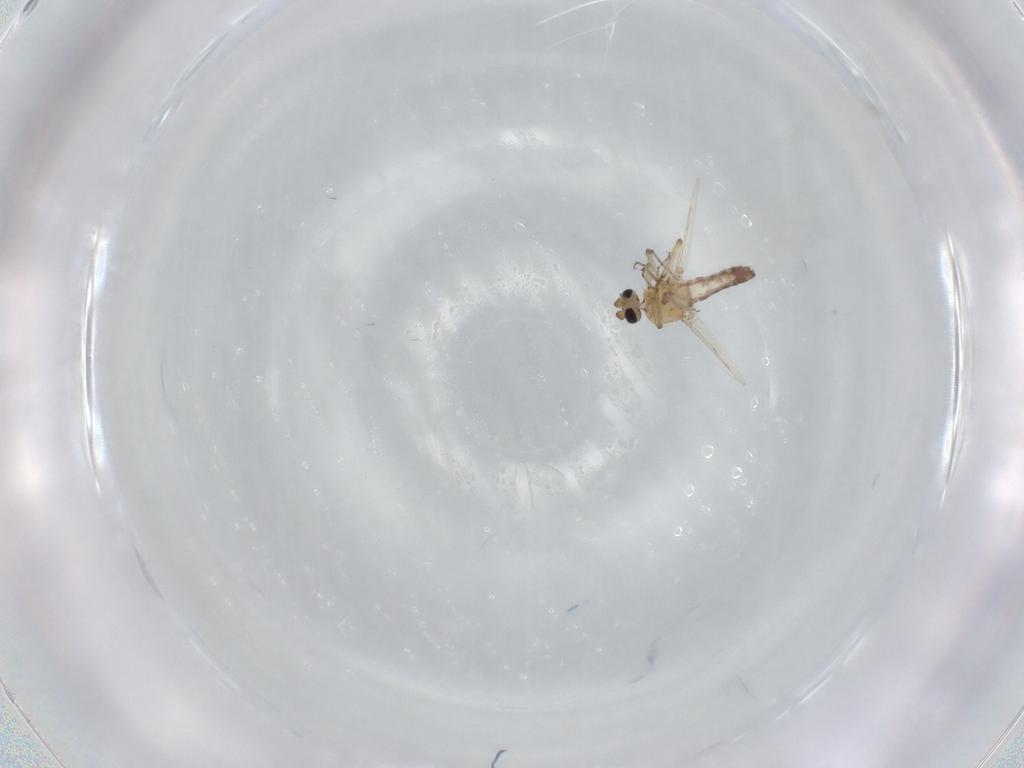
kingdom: Animalia
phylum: Arthropoda
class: Insecta
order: Diptera
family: Ceratopogonidae
